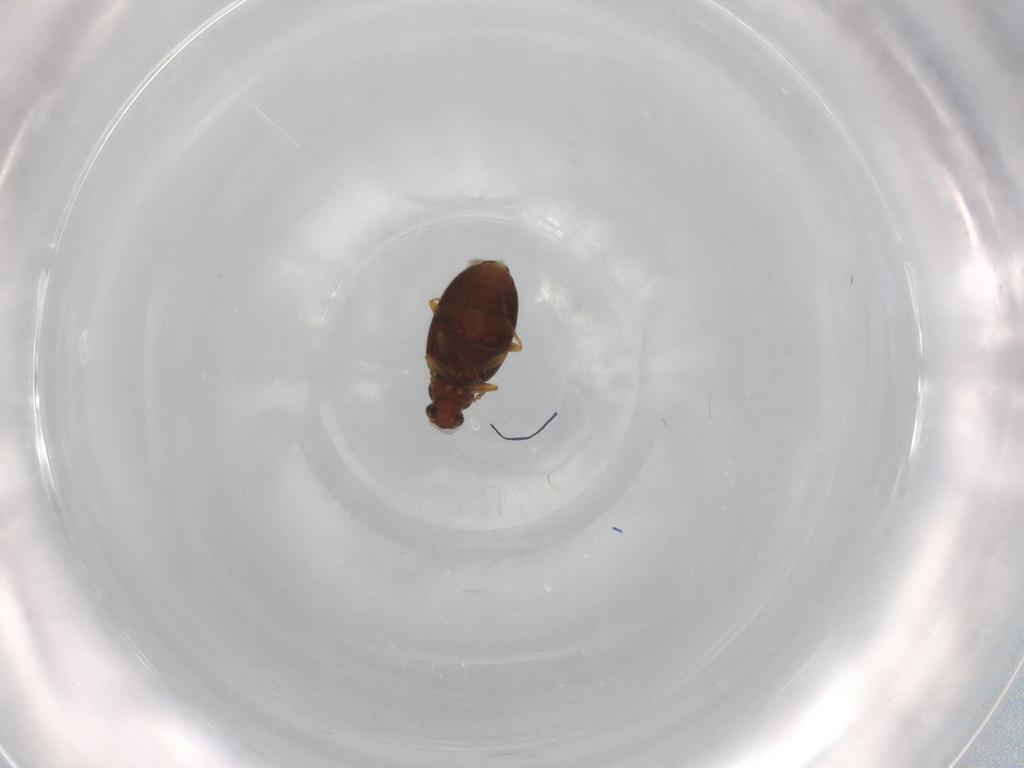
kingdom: Animalia
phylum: Arthropoda
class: Insecta
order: Coleoptera
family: Latridiidae
